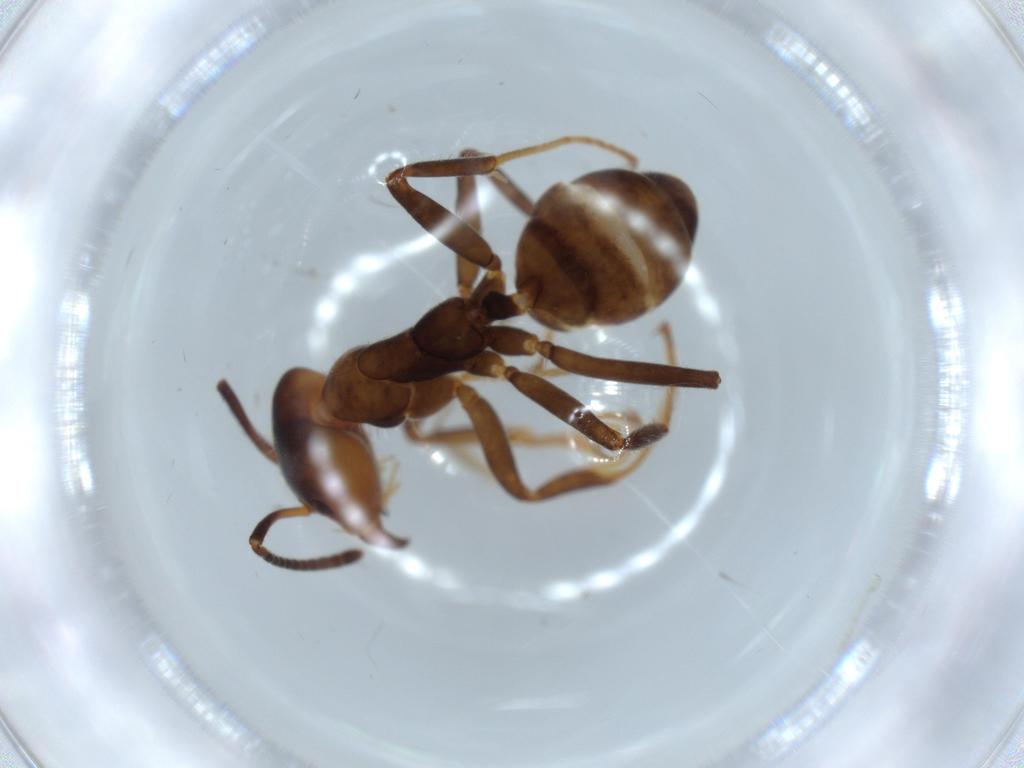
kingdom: Animalia
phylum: Arthropoda
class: Insecta
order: Hymenoptera
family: Formicidae
